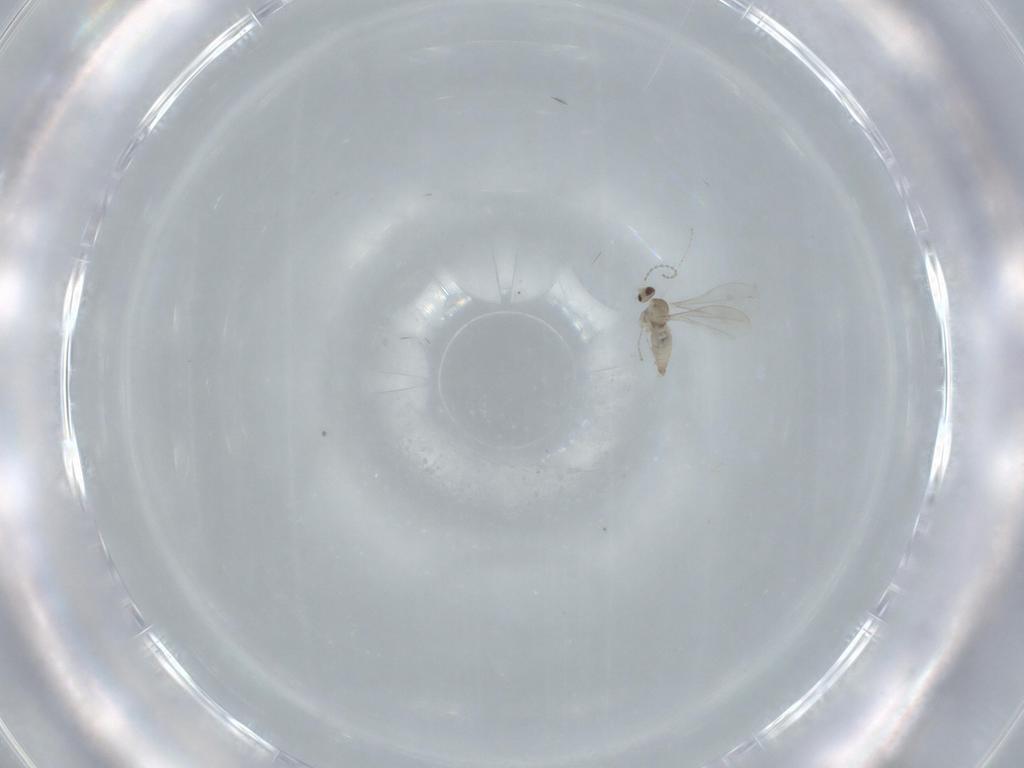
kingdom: Animalia
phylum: Arthropoda
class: Insecta
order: Diptera
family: Cecidomyiidae
